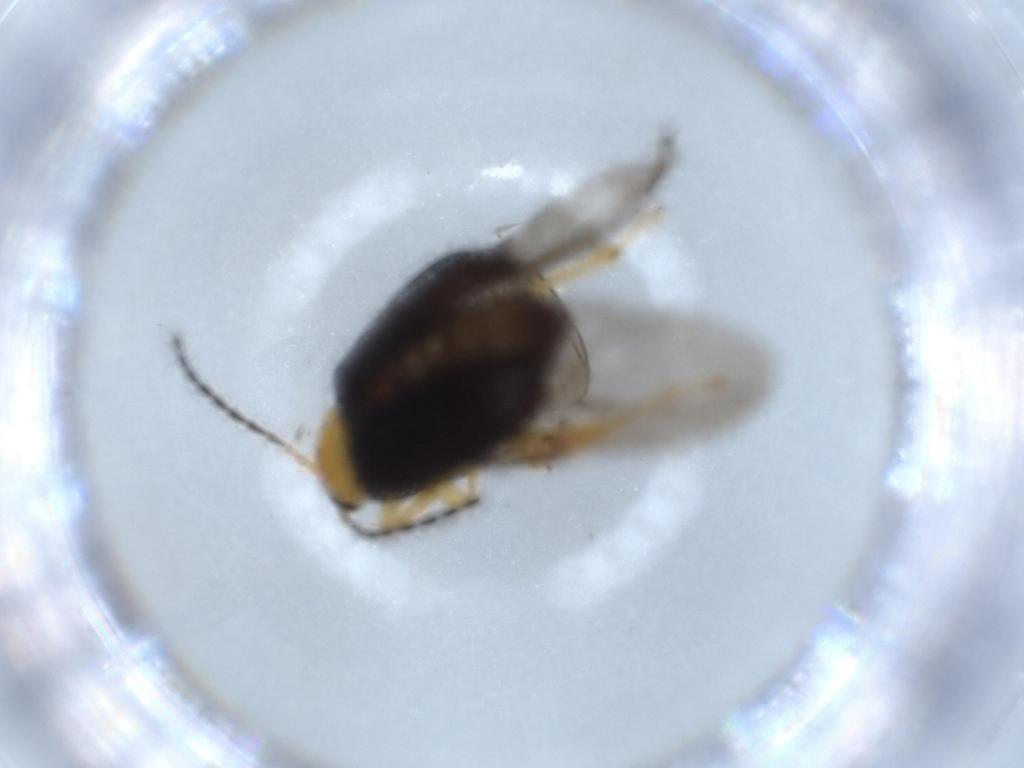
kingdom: Animalia
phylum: Arthropoda
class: Insecta
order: Coleoptera
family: Chrysomelidae
